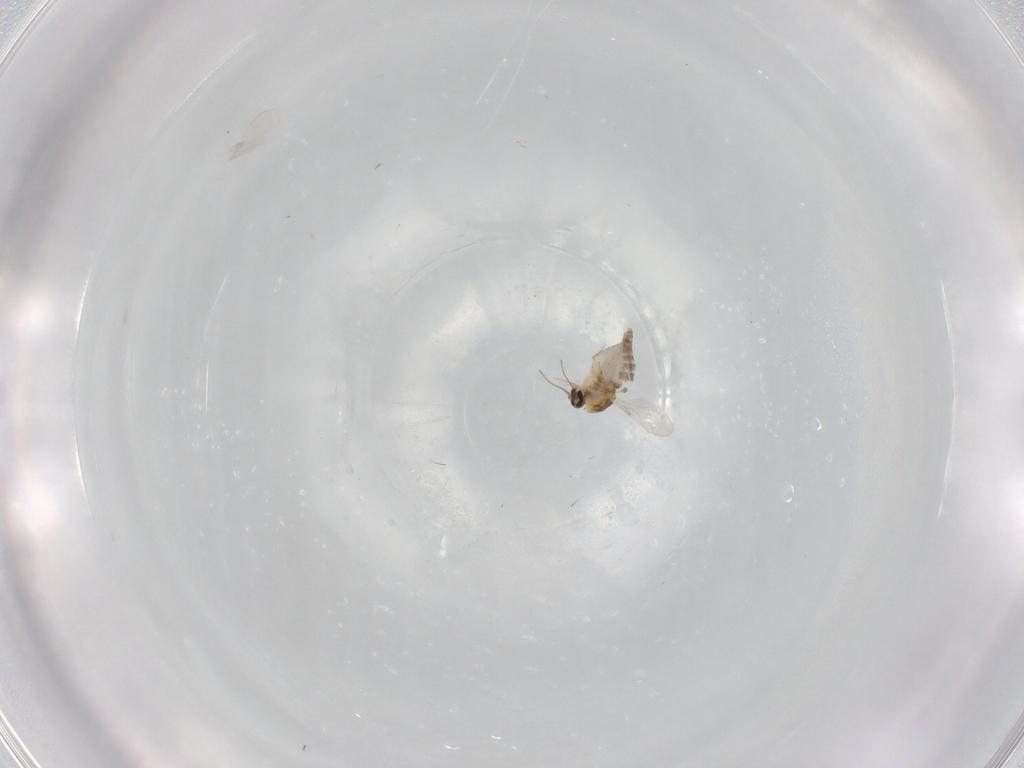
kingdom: Animalia
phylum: Arthropoda
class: Insecta
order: Diptera
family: Ceratopogonidae
